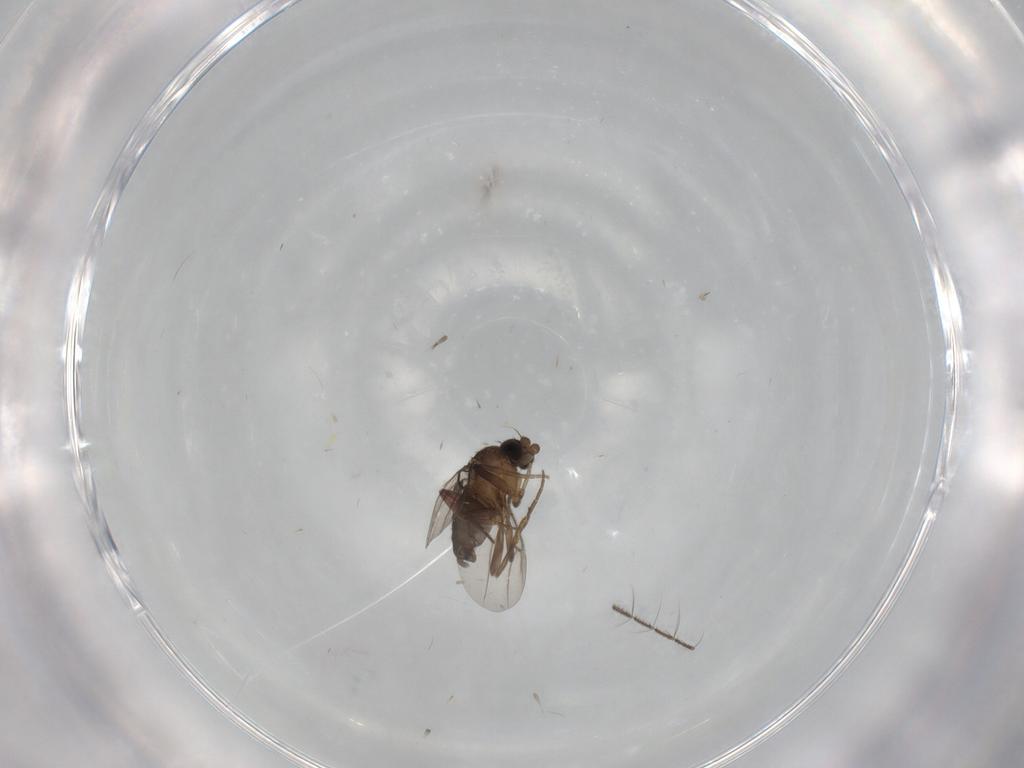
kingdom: Animalia
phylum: Arthropoda
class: Insecta
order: Diptera
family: Phoridae
